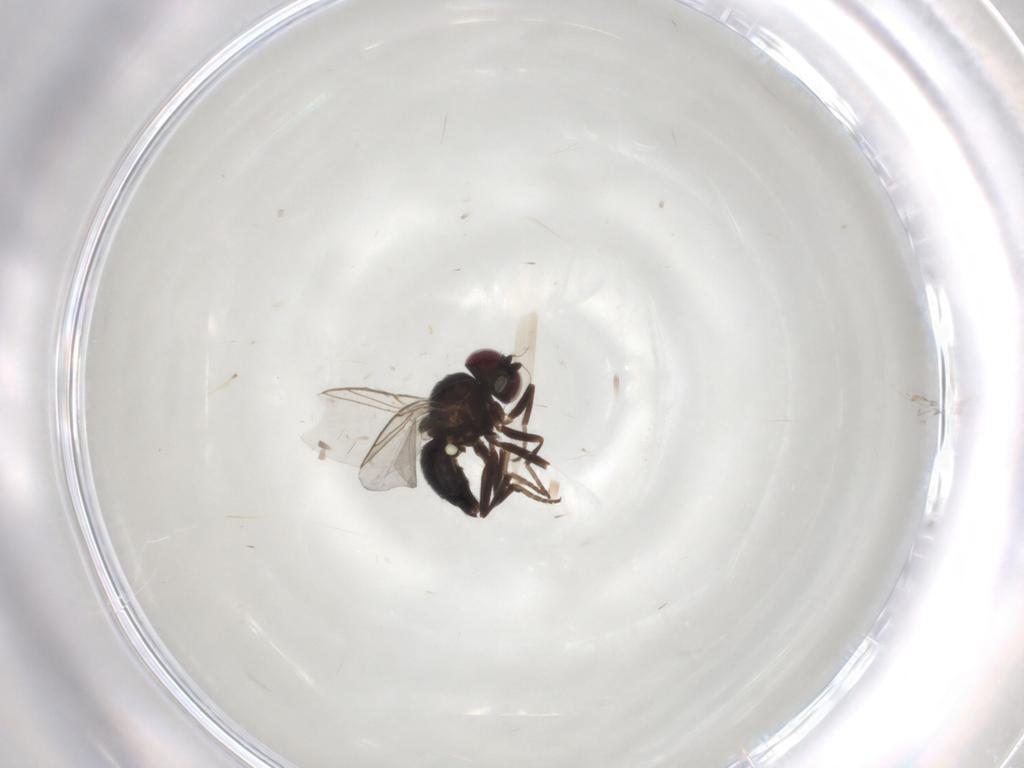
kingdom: Animalia
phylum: Arthropoda
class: Insecta
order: Diptera
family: Agromyzidae
